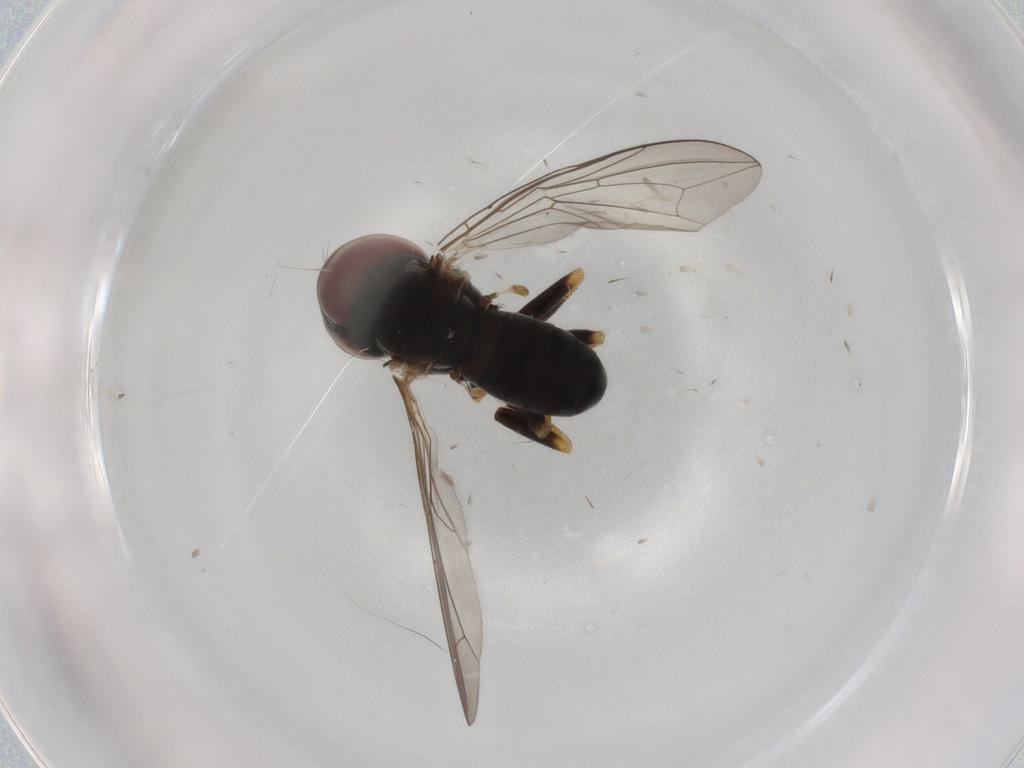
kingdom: Animalia
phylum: Arthropoda
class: Insecta
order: Diptera
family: Pipunculidae
